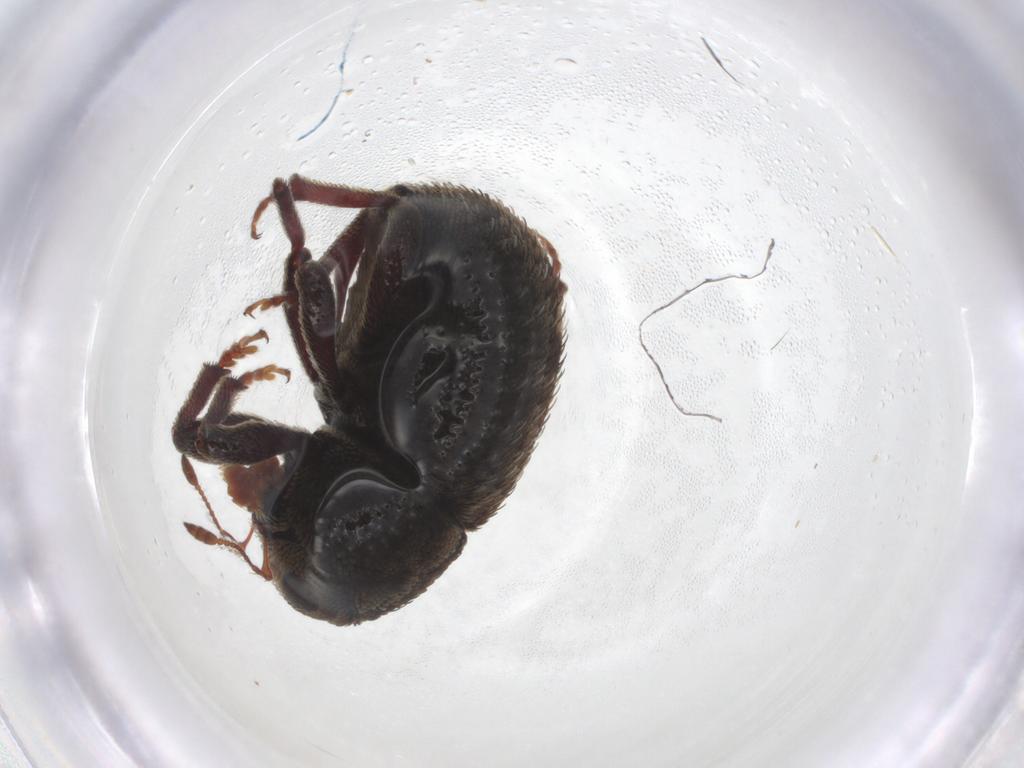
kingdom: Animalia
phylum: Arthropoda
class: Insecta
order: Coleoptera
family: Curculionidae
